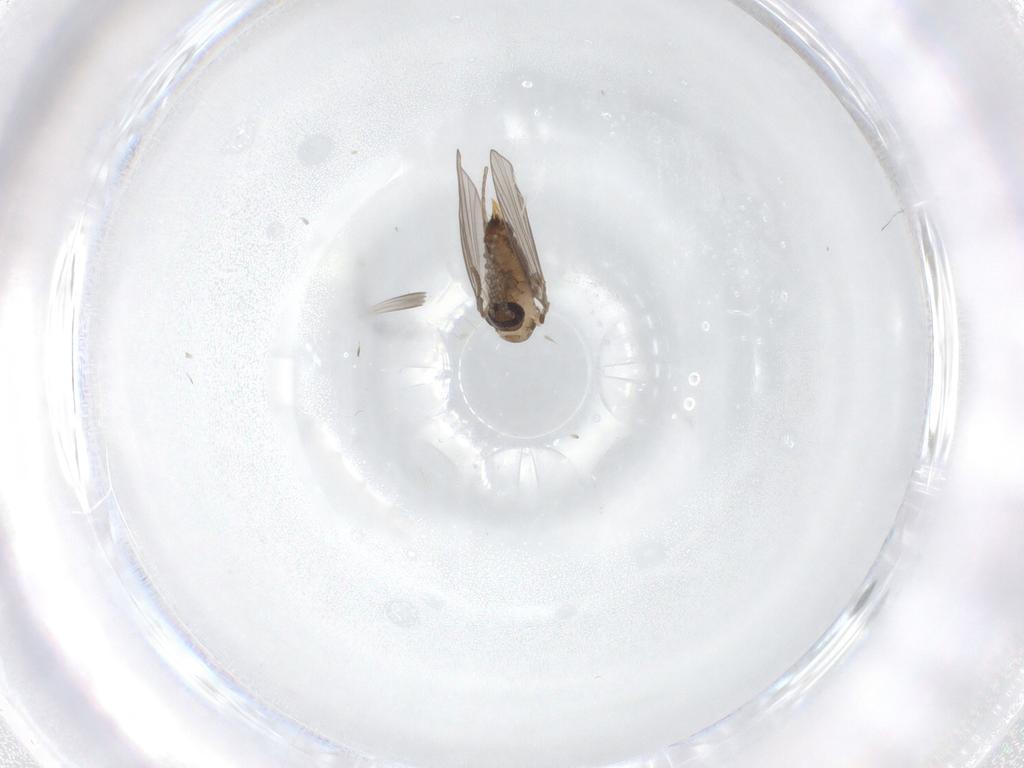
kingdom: Animalia
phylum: Arthropoda
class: Insecta
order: Diptera
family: Psychodidae
